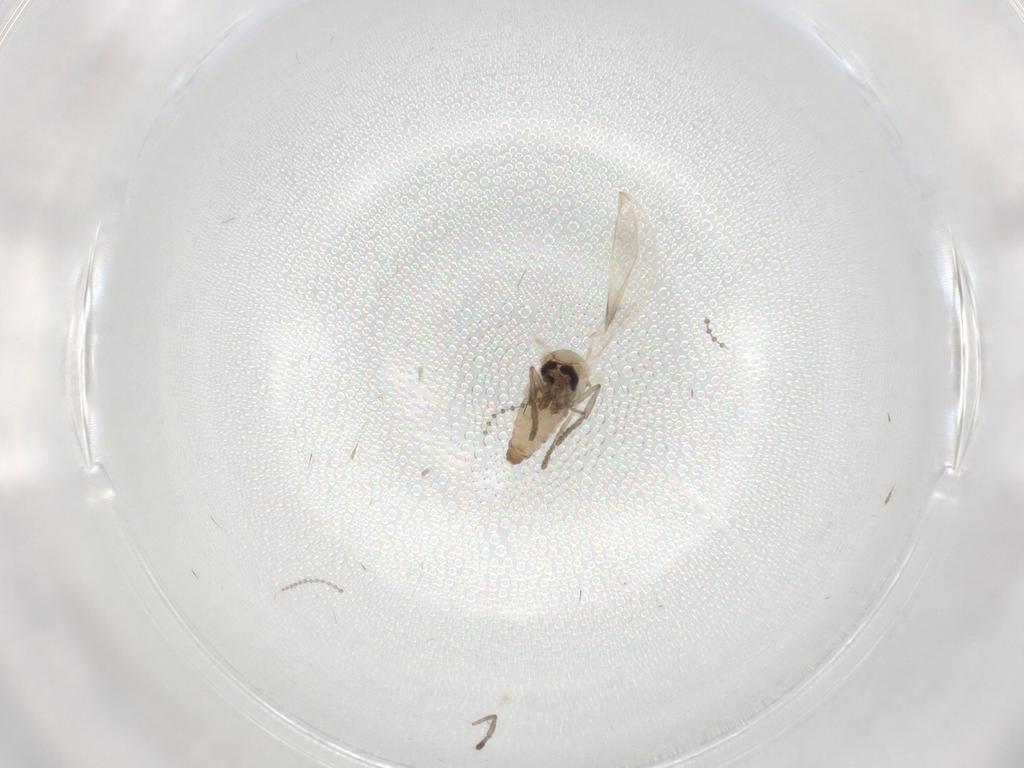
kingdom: Animalia
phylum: Arthropoda
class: Insecta
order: Diptera
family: Psychodidae
